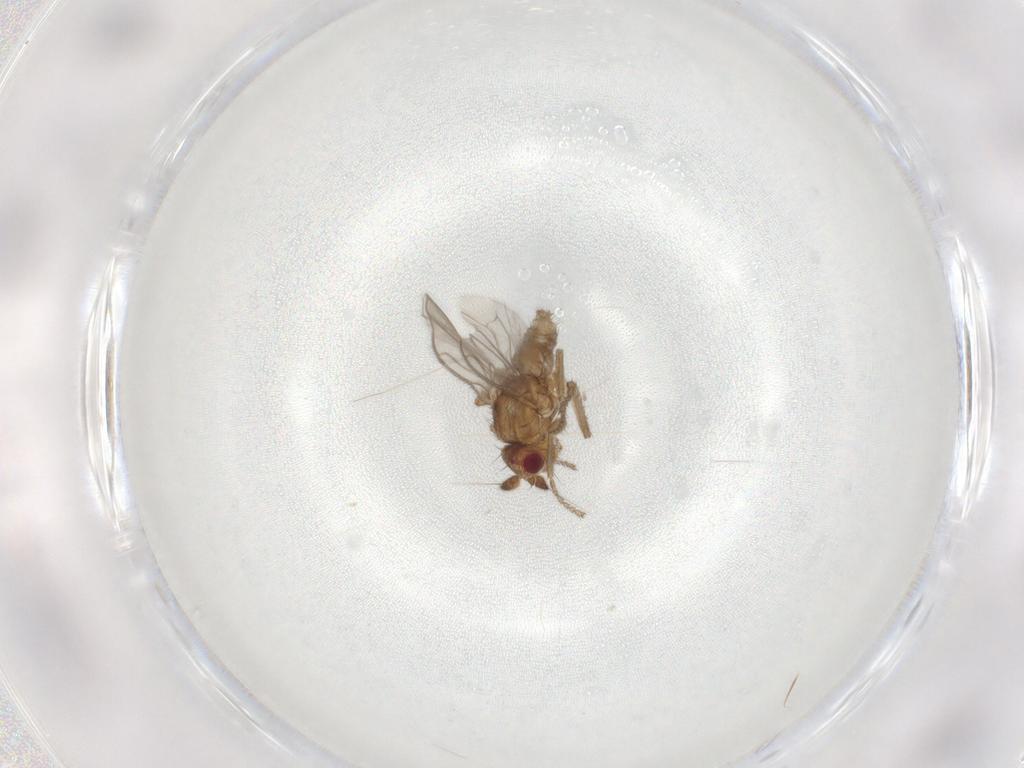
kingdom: Animalia
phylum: Arthropoda
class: Insecta
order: Diptera
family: Sphaeroceridae
